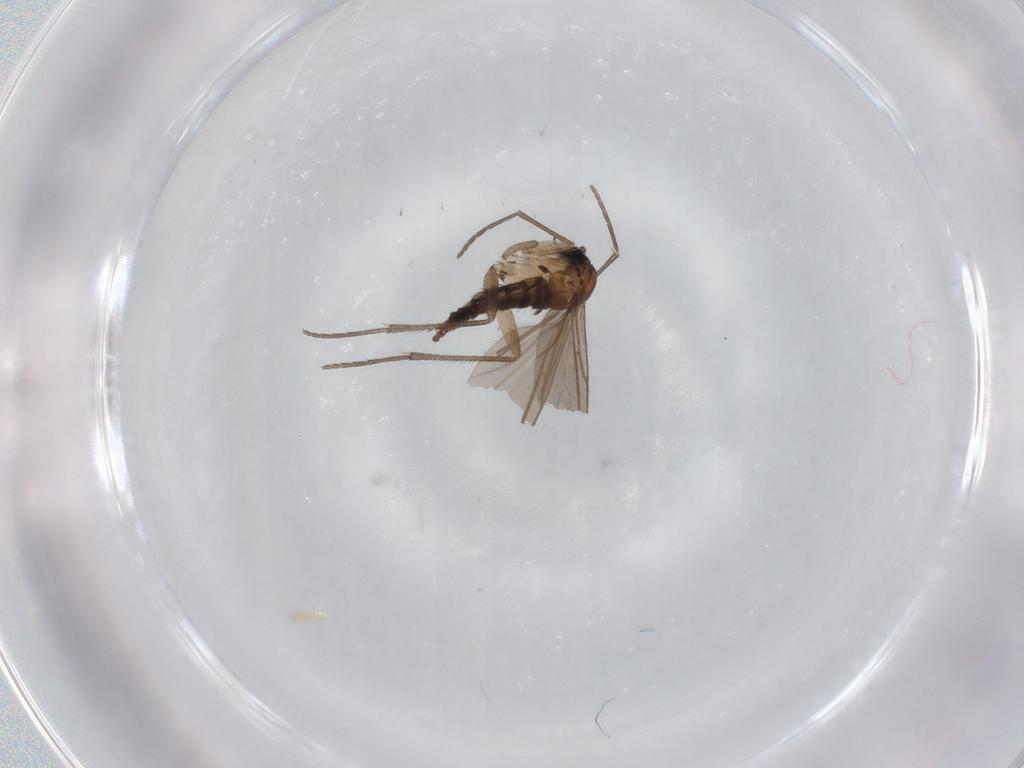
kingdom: Animalia
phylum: Arthropoda
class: Insecta
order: Diptera
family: Sciaridae
